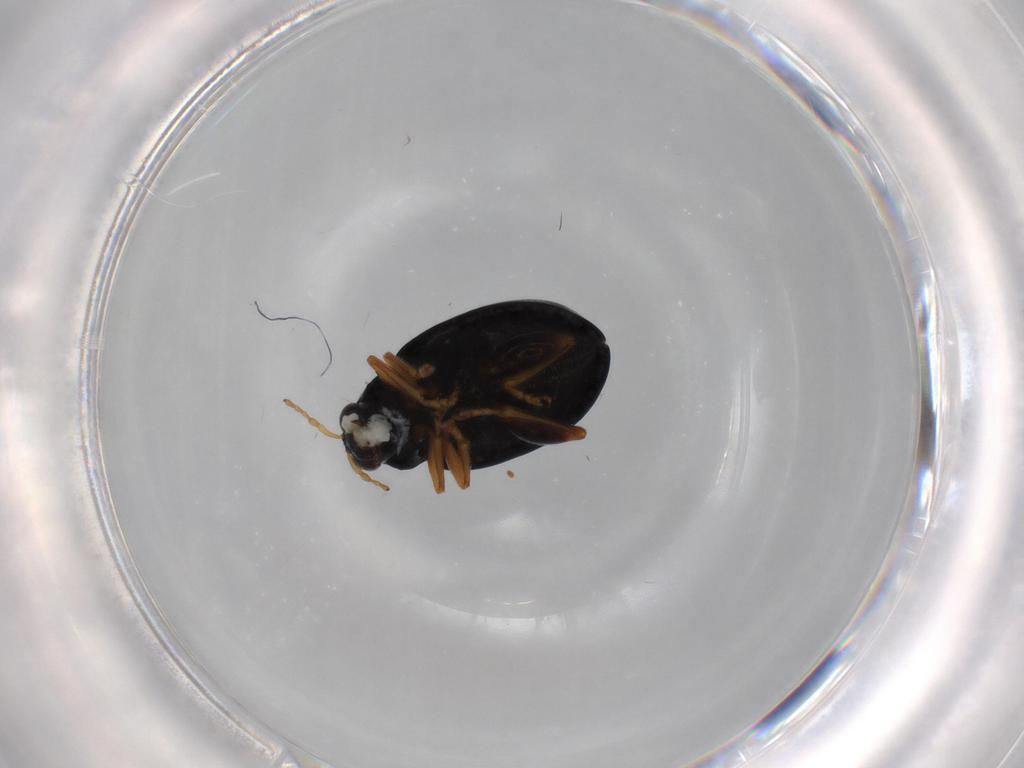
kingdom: Animalia
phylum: Arthropoda
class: Insecta
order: Coleoptera
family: Chrysomelidae
